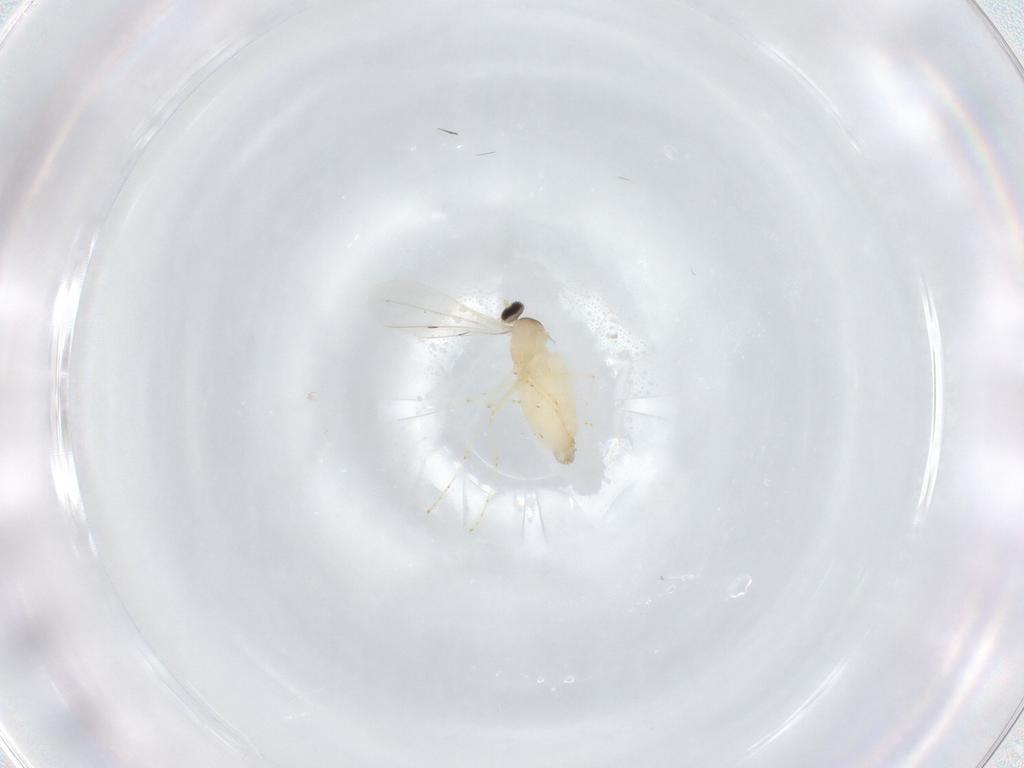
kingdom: Animalia
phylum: Arthropoda
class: Insecta
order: Diptera
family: Cecidomyiidae
